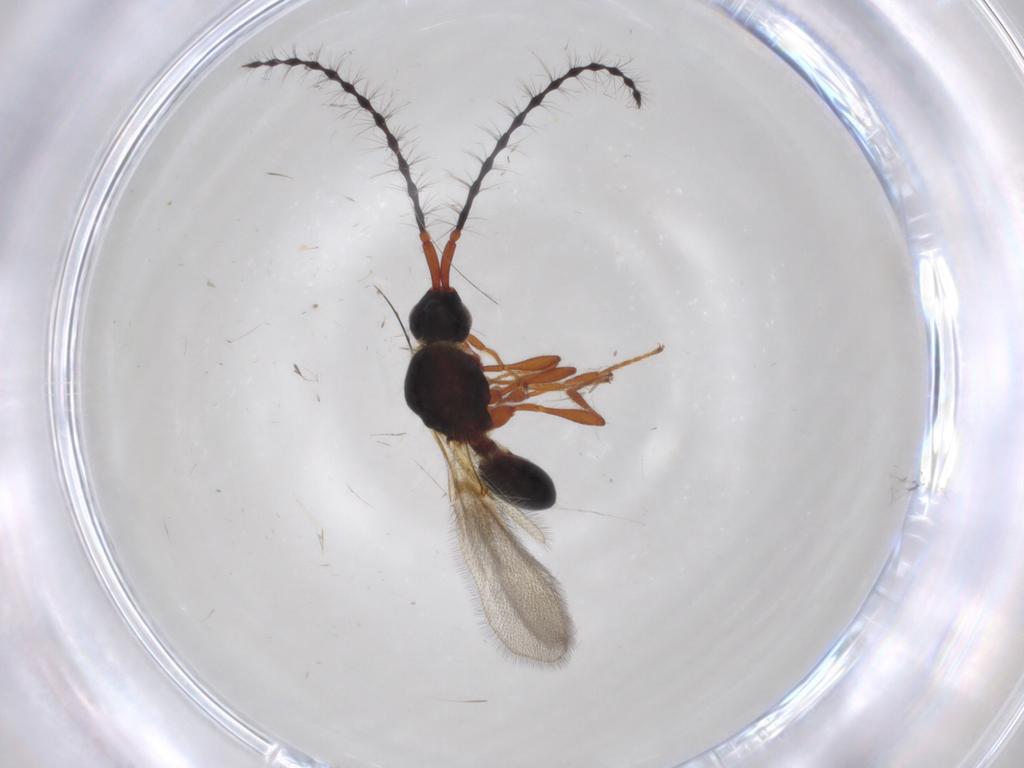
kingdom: Animalia
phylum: Arthropoda
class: Insecta
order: Hymenoptera
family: Diapriidae
